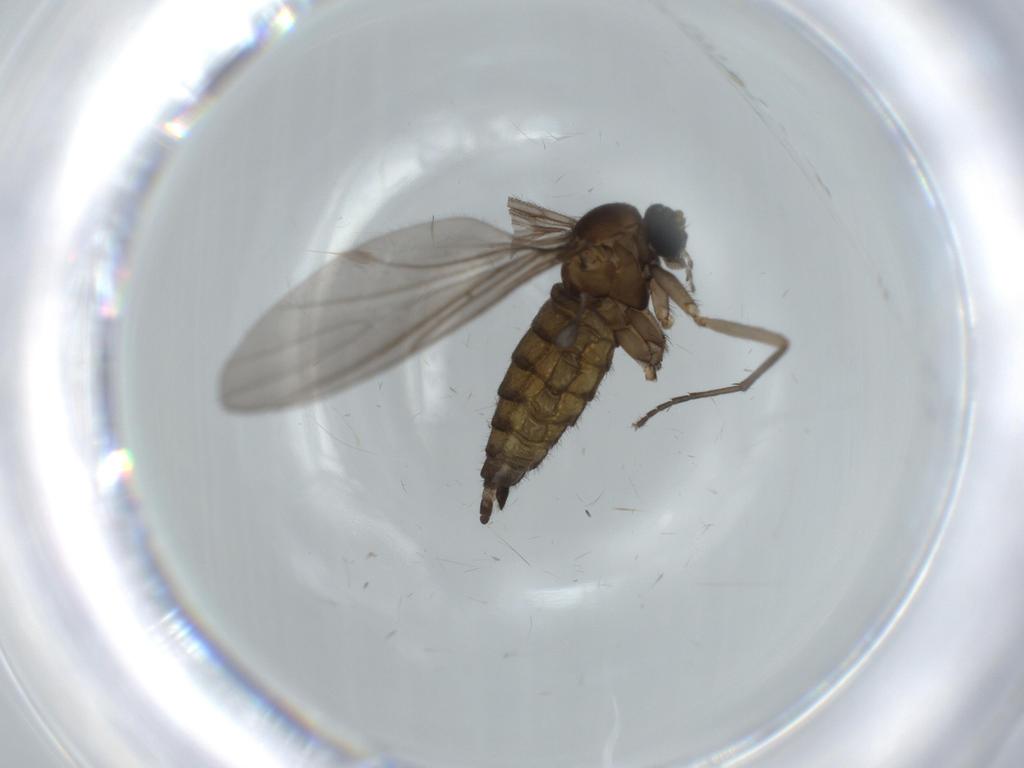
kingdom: Animalia
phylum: Arthropoda
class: Insecta
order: Diptera
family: Sciaridae
